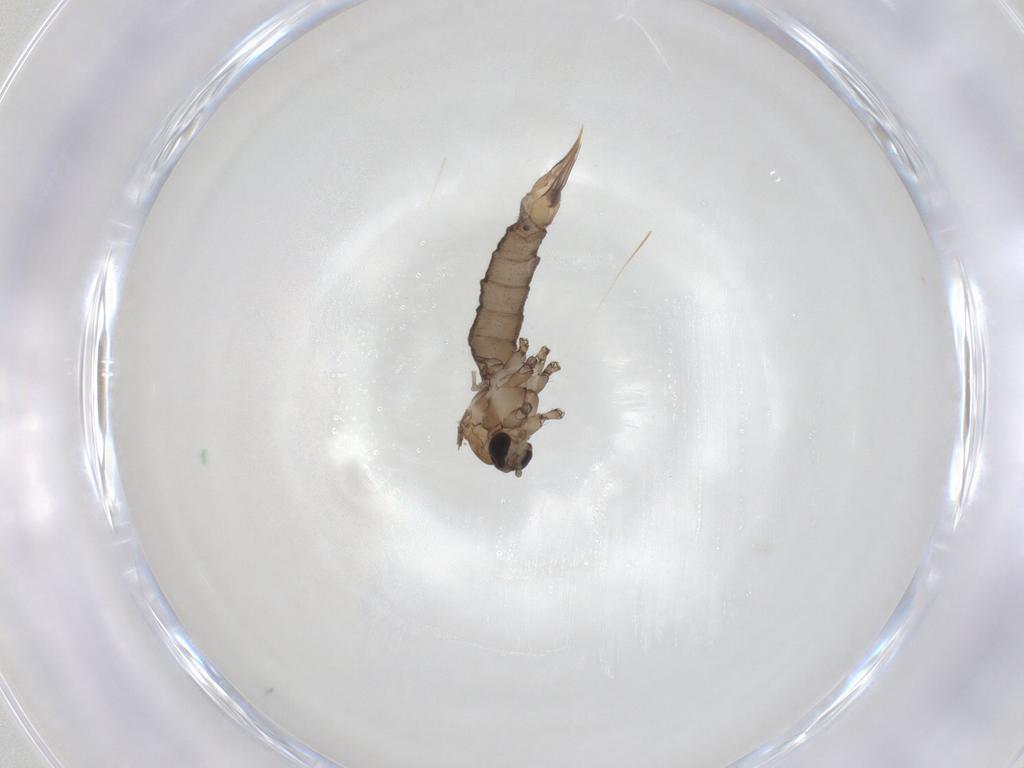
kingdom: Animalia
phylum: Arthropoda
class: Insecta
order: Diptera
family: Limoniidae
